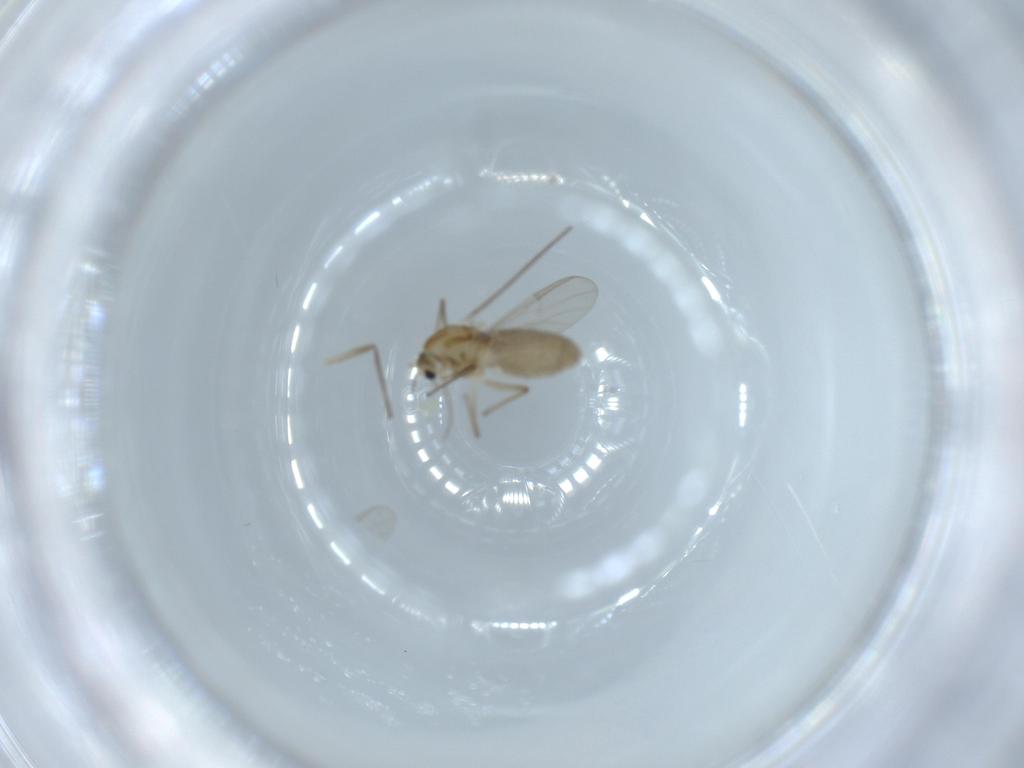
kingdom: Animalia
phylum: Arthropoda
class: Insecta
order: Diptera
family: Chironomidae
